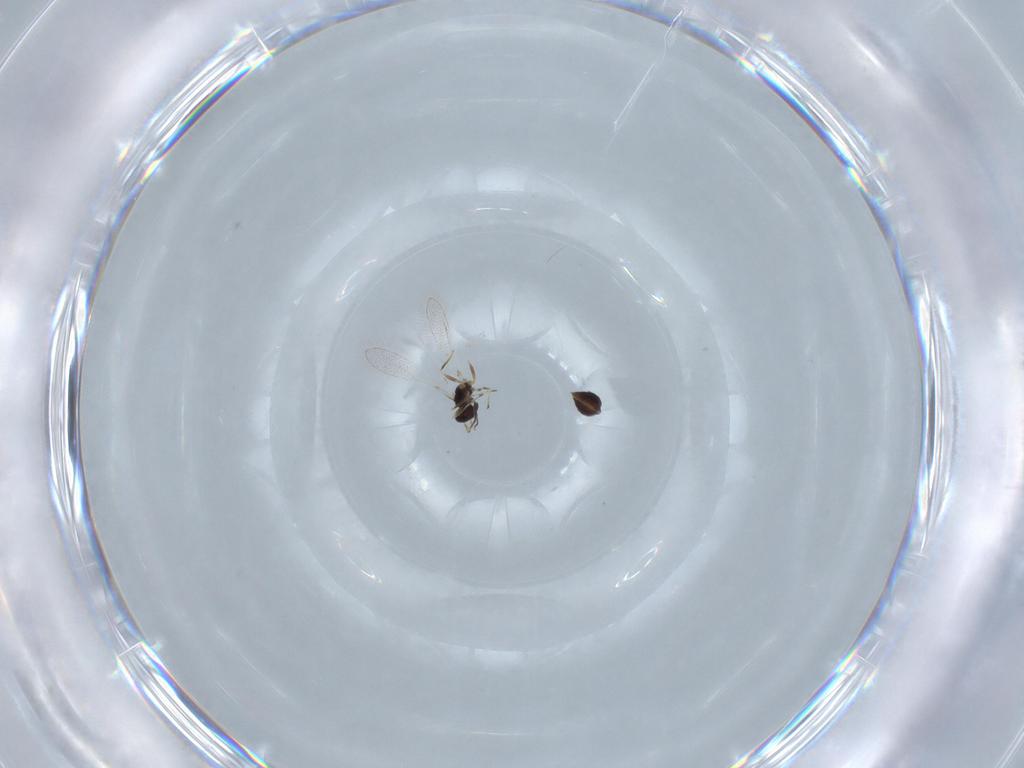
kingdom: Animalia
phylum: Arthropoda
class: Insecta
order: Hymenoptera
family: Mymaridae
